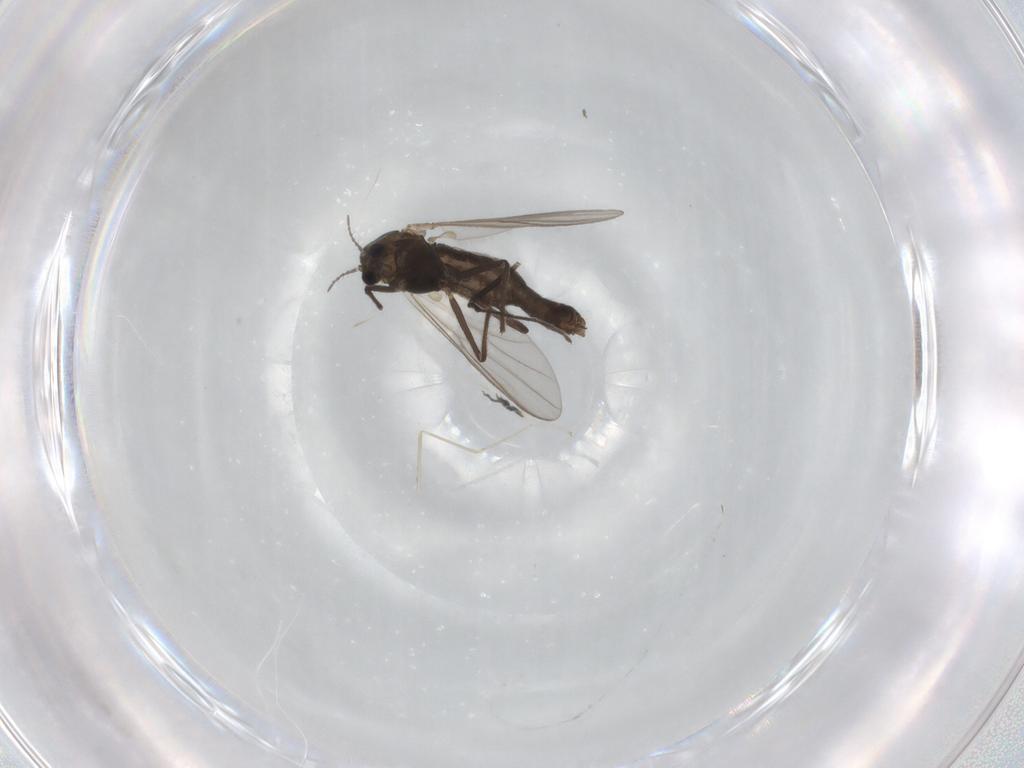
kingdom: Animalia
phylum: Arthropoda
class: Insecta
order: Diptera
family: Chironomidae
